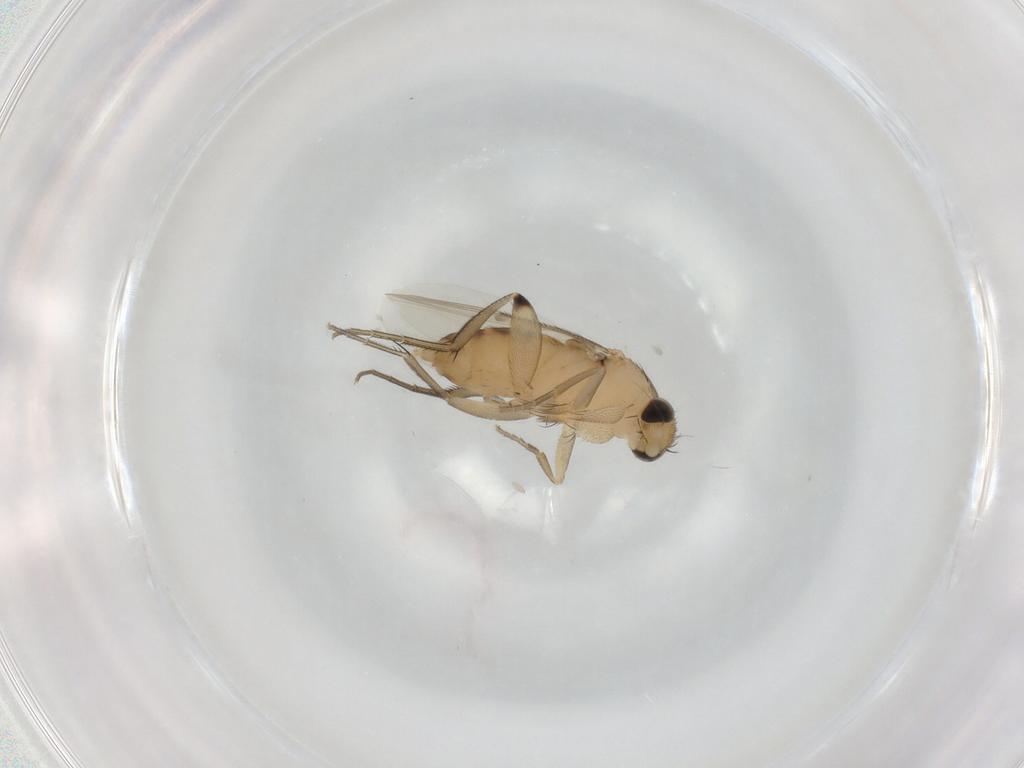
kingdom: Animalia
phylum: Arthropoda
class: Insecta
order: Diptera
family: Phoridae
